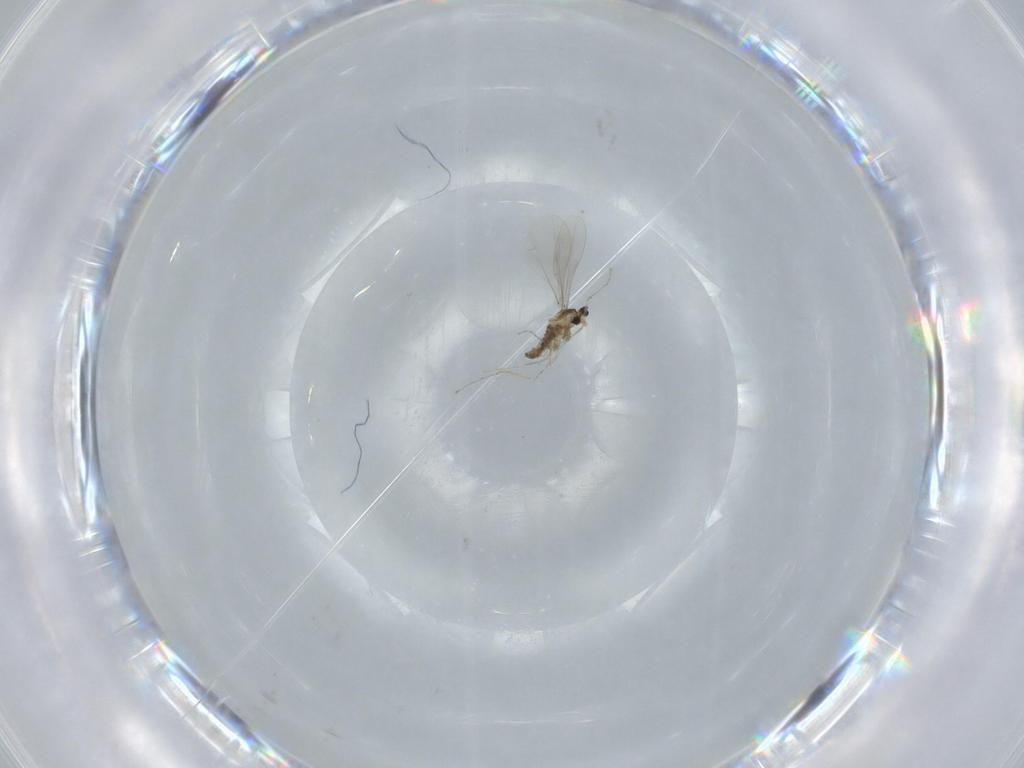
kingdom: Animalia
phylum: Arthropoda
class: Insecta
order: Diptera
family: Cecidomyiidae
